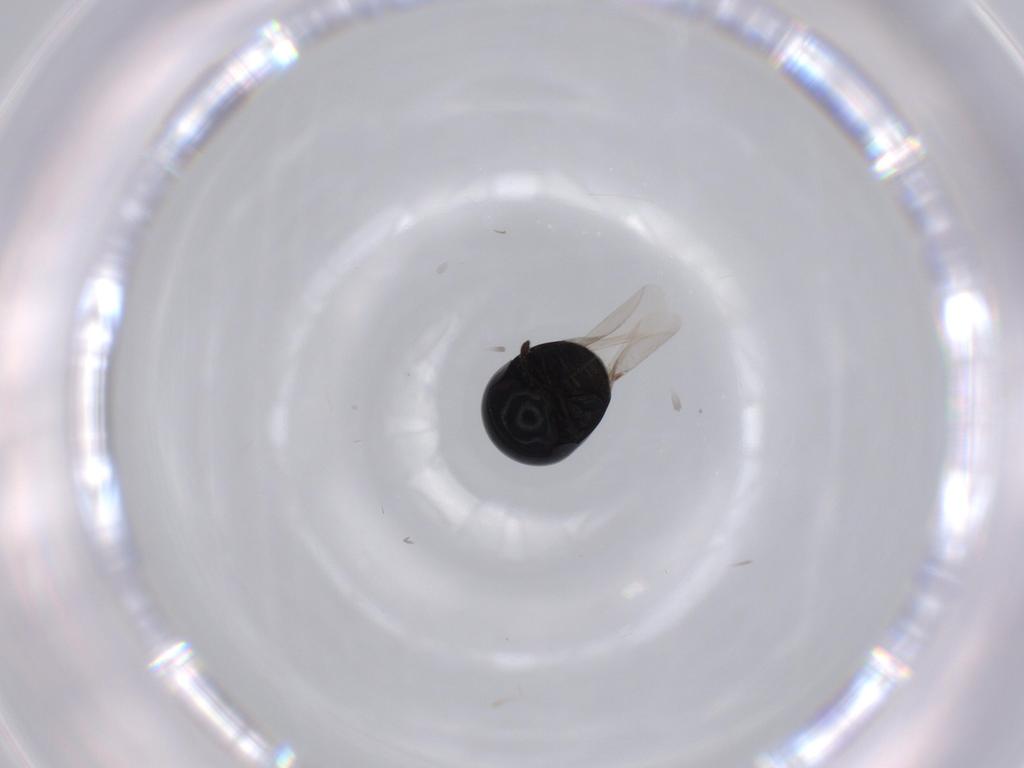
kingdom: Animalia
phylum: Arthropoda
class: Insecta
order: Coleoptera
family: Cybocephalidae
